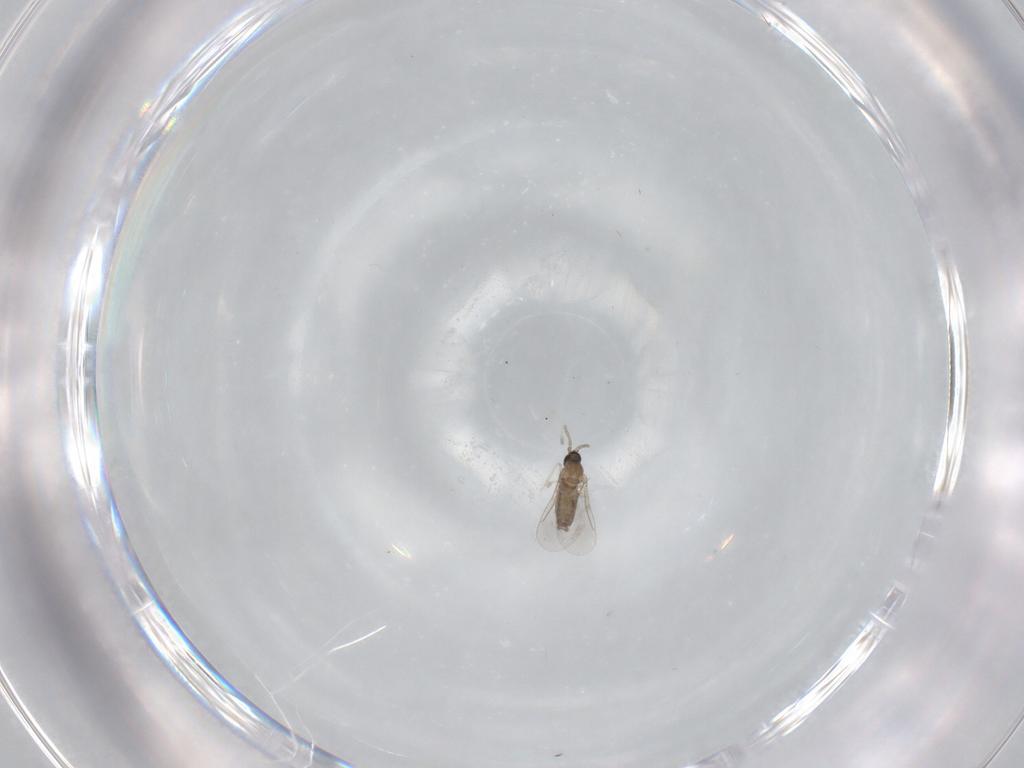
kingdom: Animalia
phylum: Arthropoda
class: Insecta
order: Diptera
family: Cecidomyiidae
